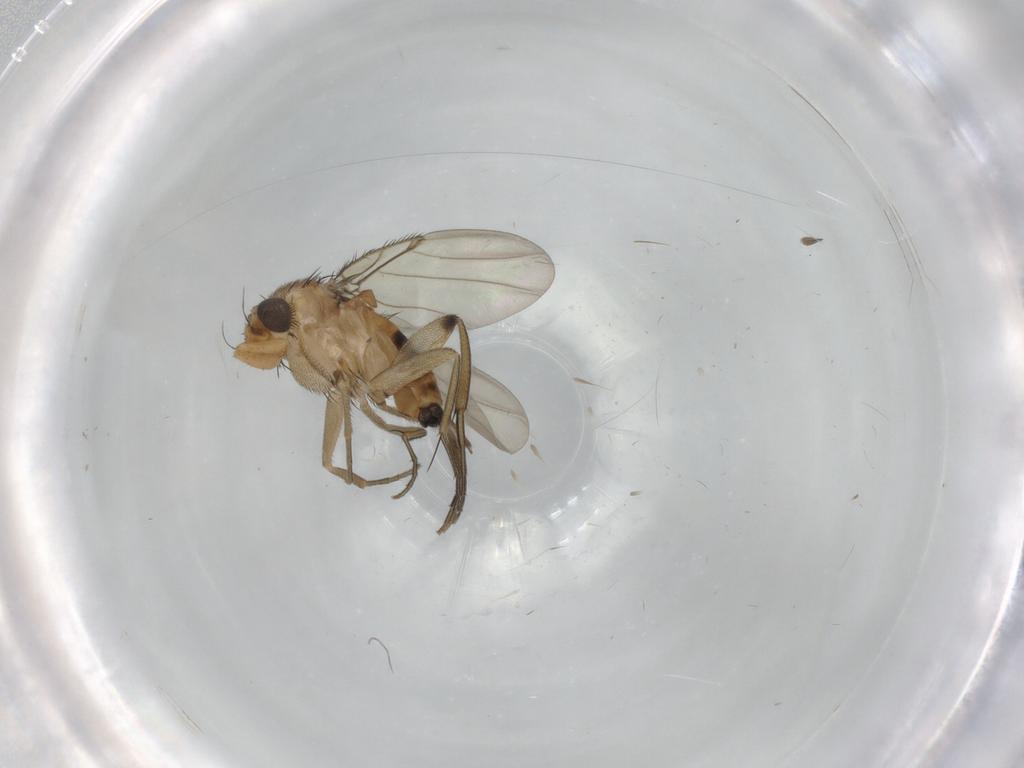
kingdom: Animalia
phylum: Arthropoda
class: Insecta
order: Diptera
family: Phoridae
